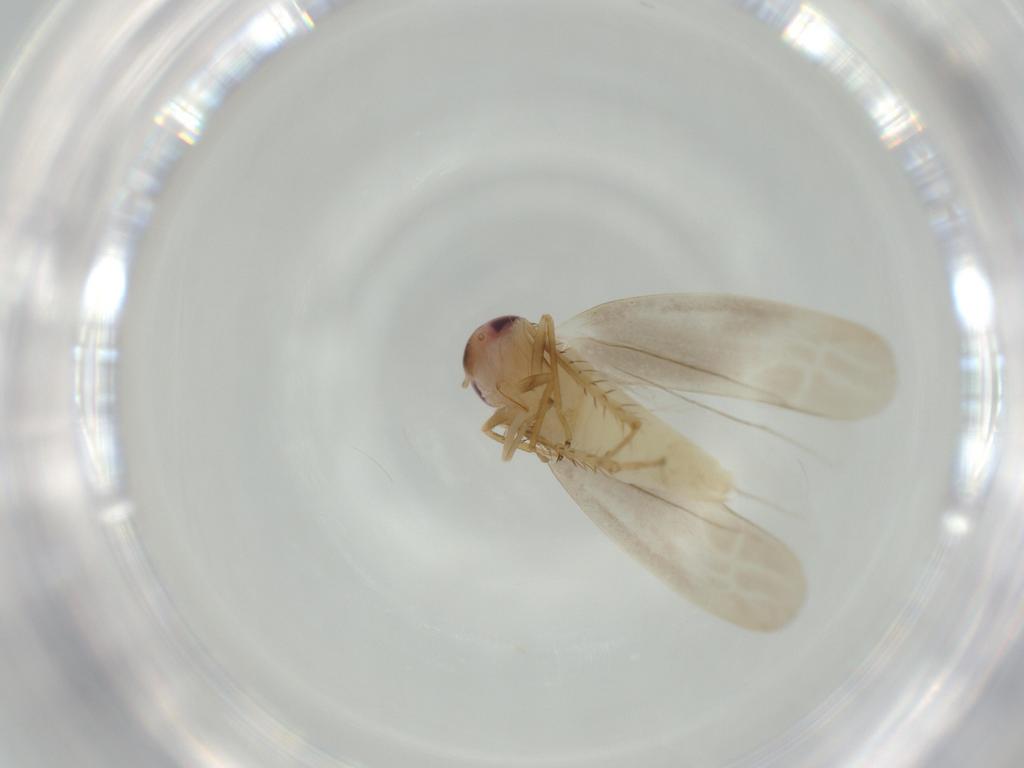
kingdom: Animalia
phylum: Arthropoda
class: Insecta
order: Hemiptera
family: Cicadellidae
